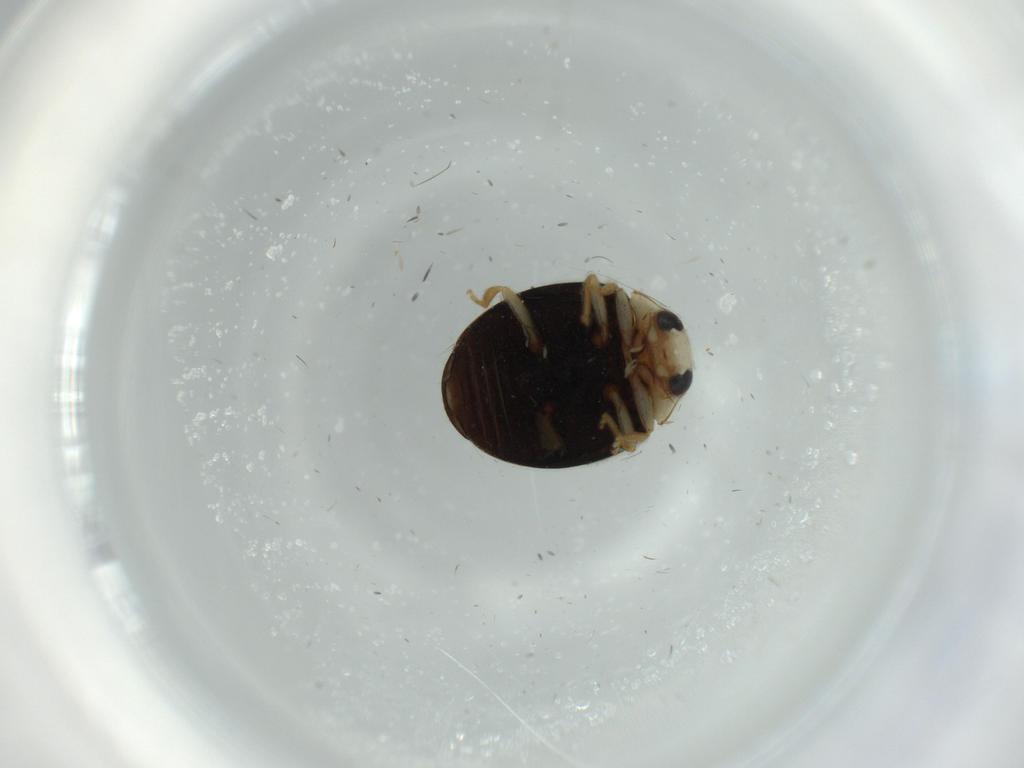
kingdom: Animalia
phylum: Arthropoda
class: Insecta
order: Coleoptera
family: Coccinellidae
